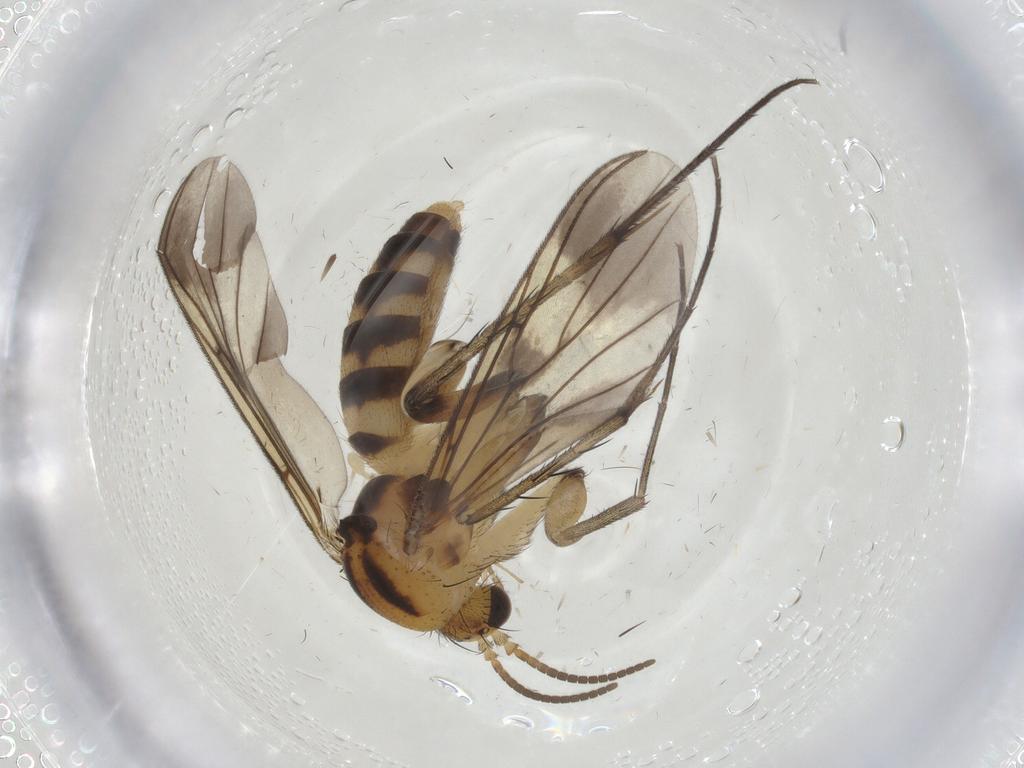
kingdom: Animalia
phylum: Arthropoda
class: Insecta
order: Diptera
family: Mycetophilidae
